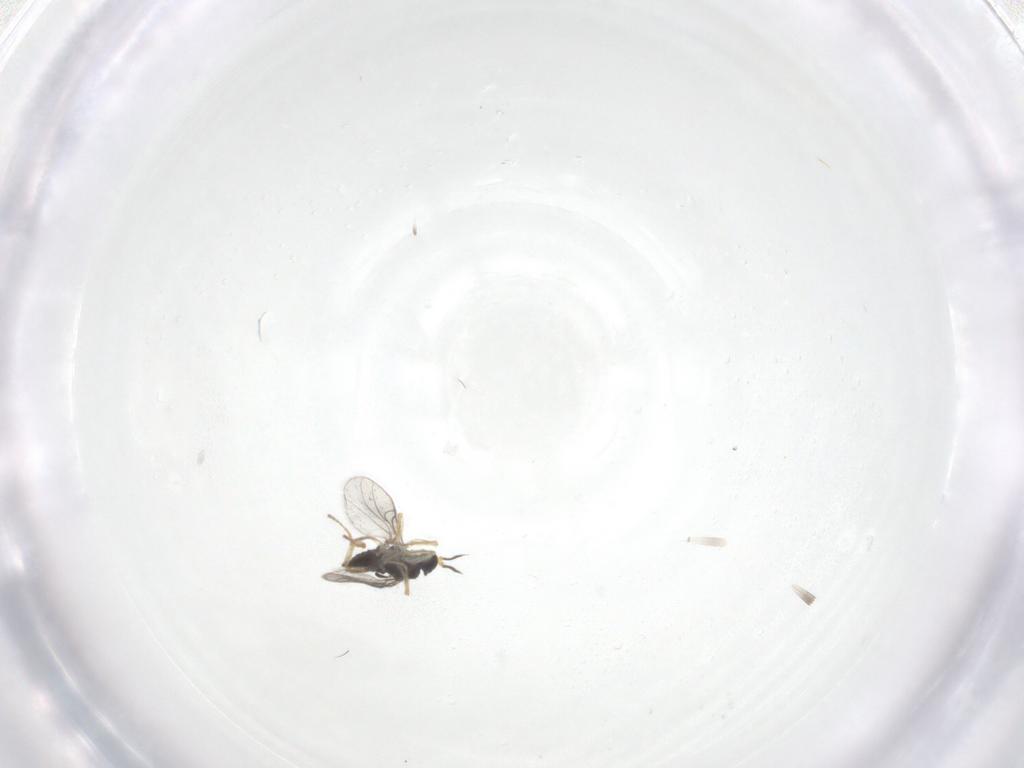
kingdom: Animalia
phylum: Arthropoda
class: Insecta
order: Diptera
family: Hybotidae
